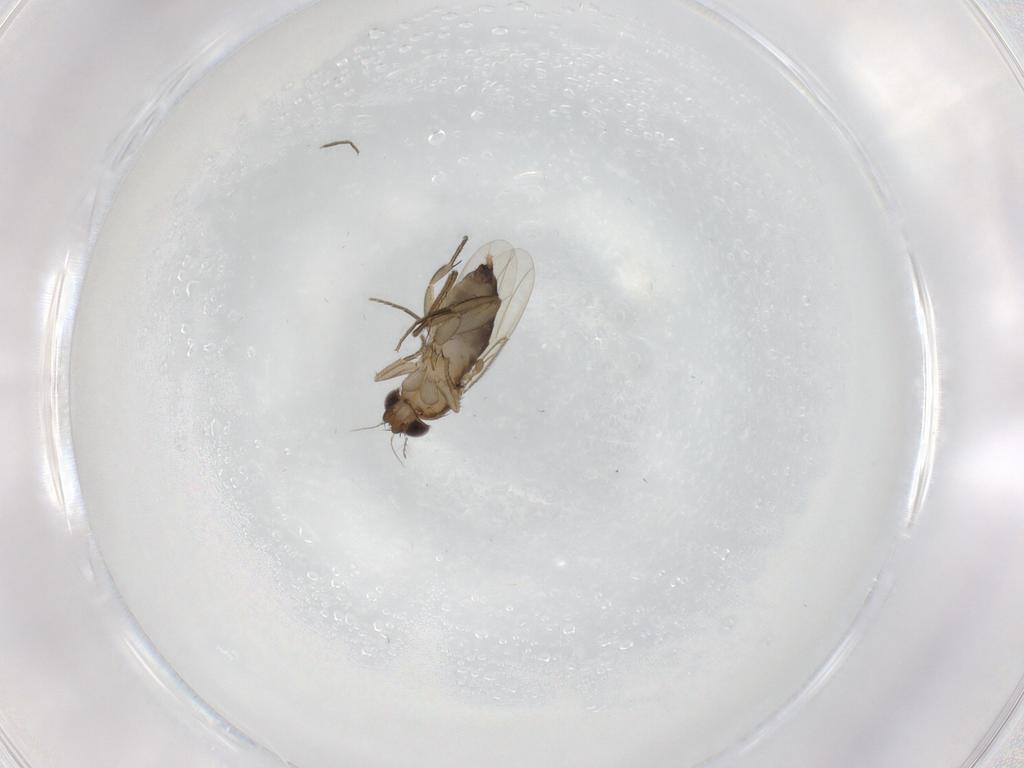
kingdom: Animalia
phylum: Arthropoda
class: Insecta
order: Diptera
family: Phoridae
